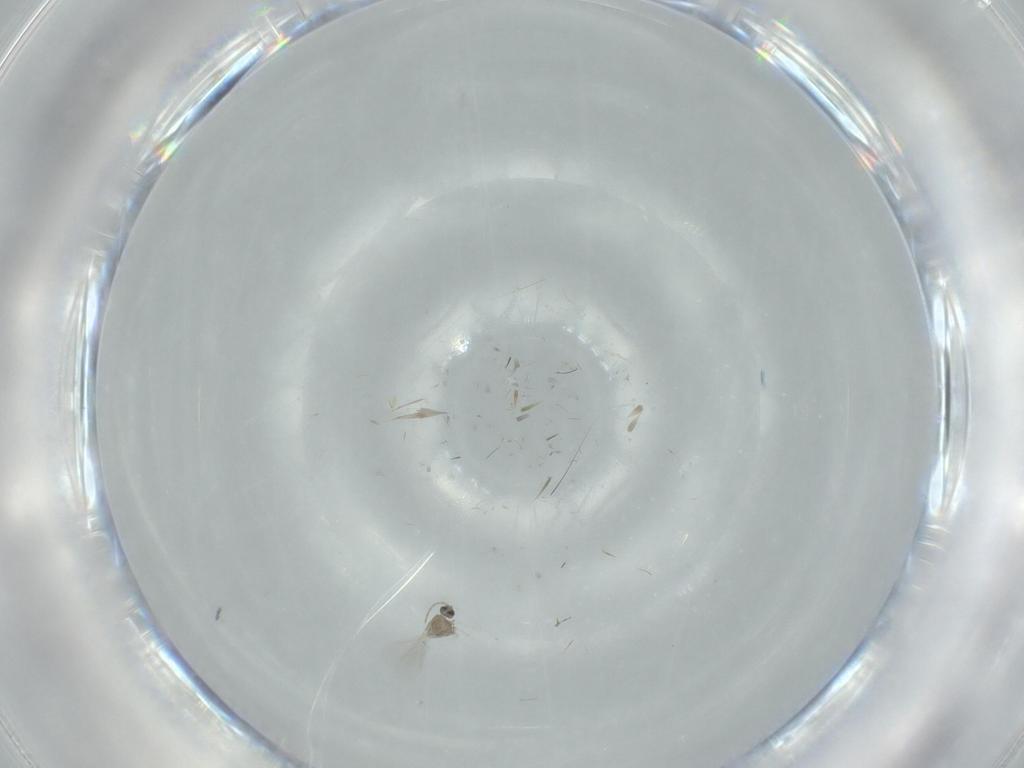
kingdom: Animalia
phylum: Arthropoda
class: Insecta
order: Diptera
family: Cecidomyiidae
